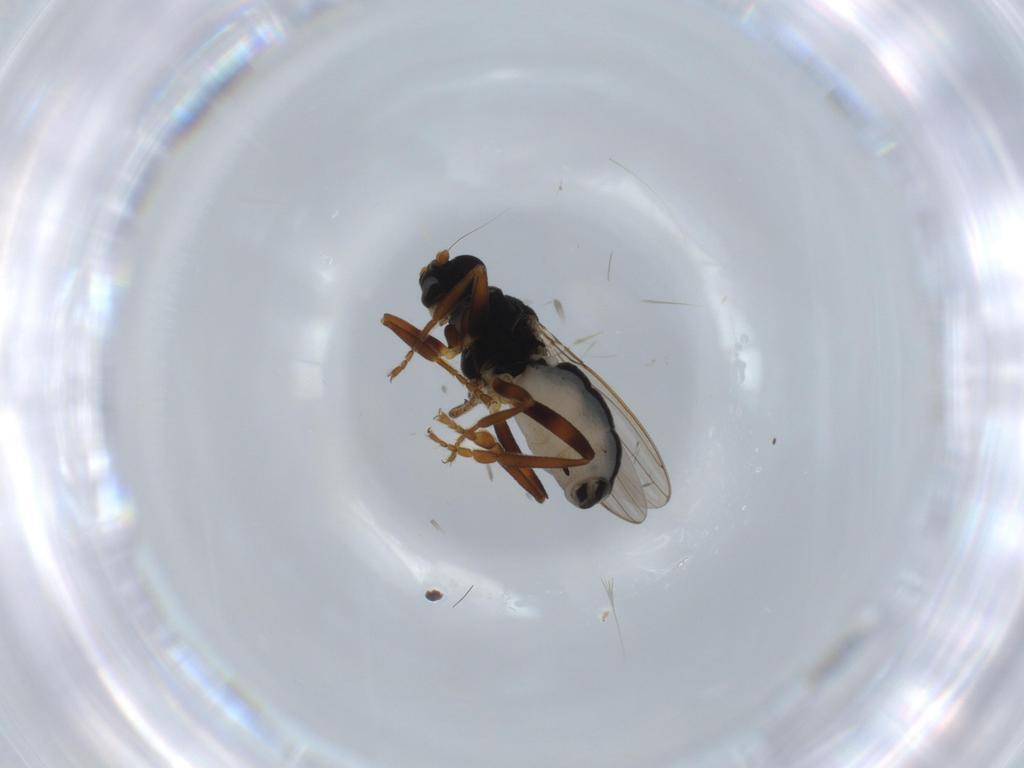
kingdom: Animalia
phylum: Arthropoda
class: Insecta
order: Diptera
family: Sphaeroceridae
